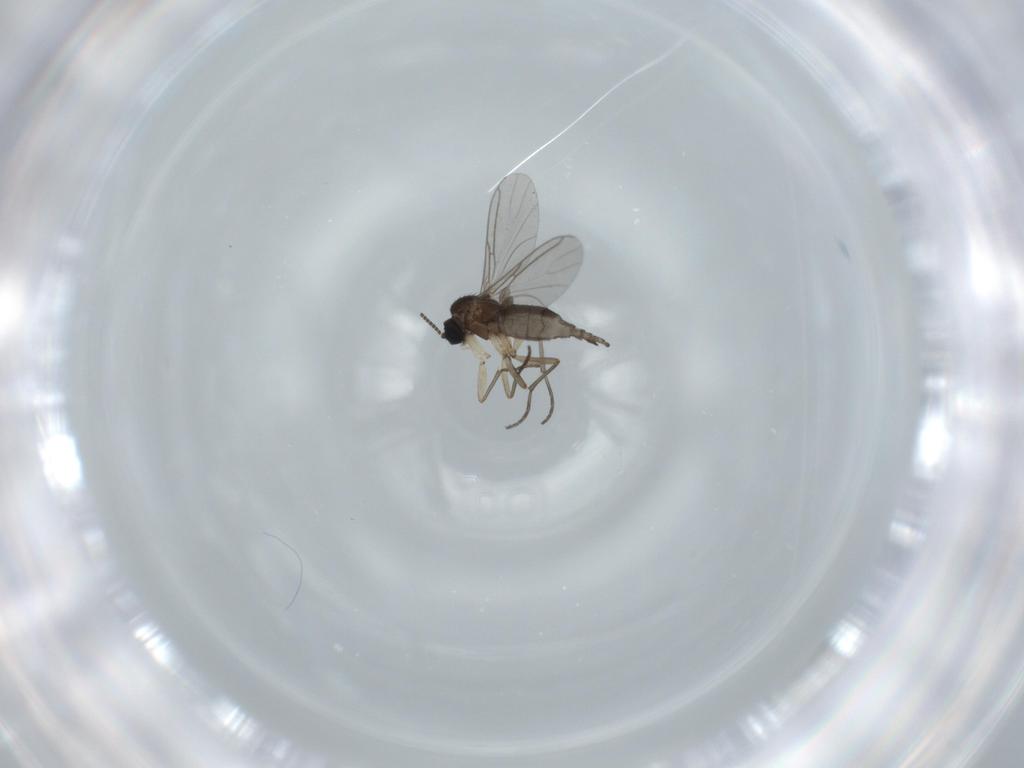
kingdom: Animalia
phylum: Arthropoda
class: Insecta
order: Diptera
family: Sciaridae
